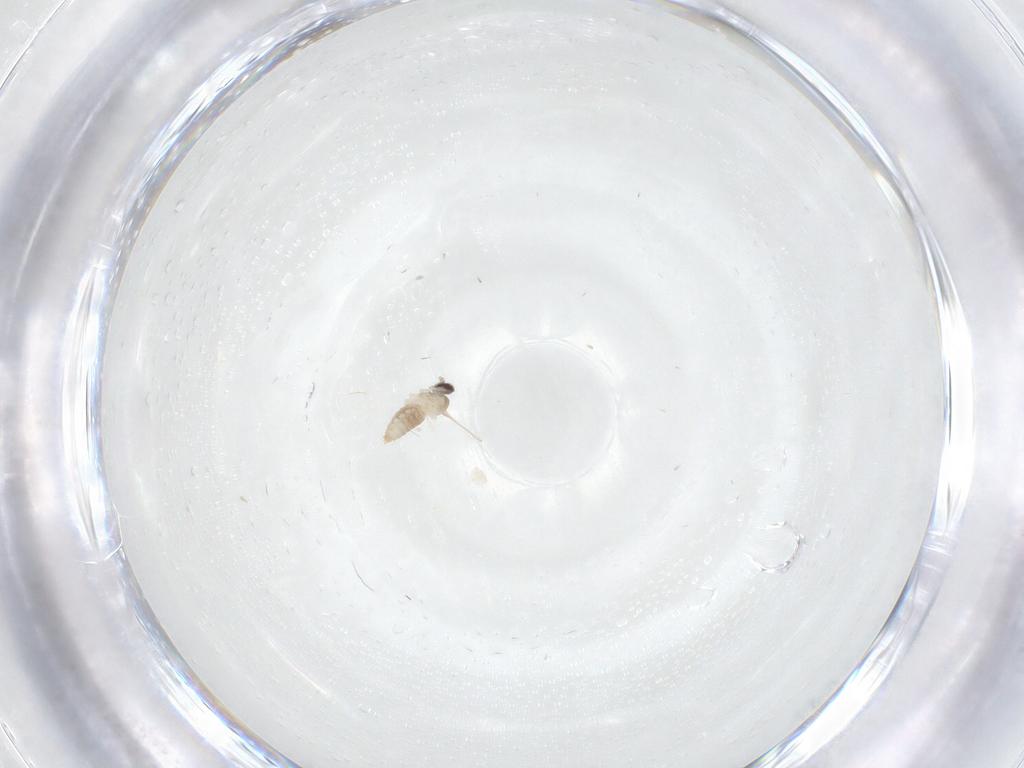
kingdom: Animalia
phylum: Arthropoda
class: Insecta
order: Diptera
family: Cecidomyiidae
